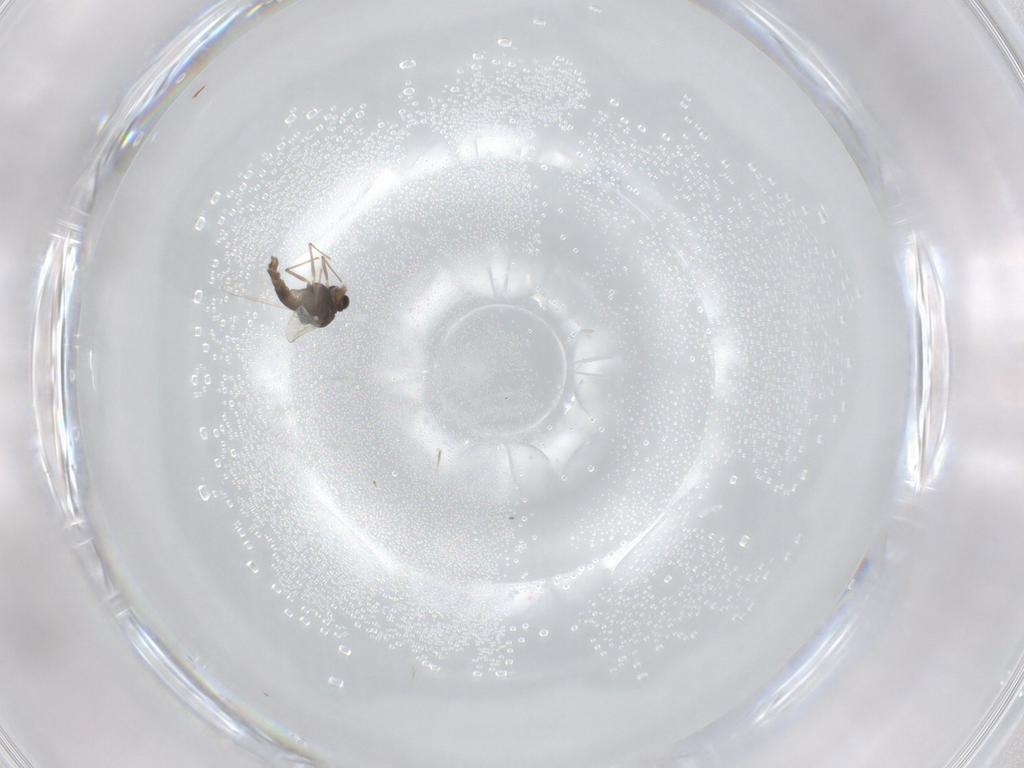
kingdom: Animalia
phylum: Arthropoda
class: Insecta
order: Diptera
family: Chironomidae
